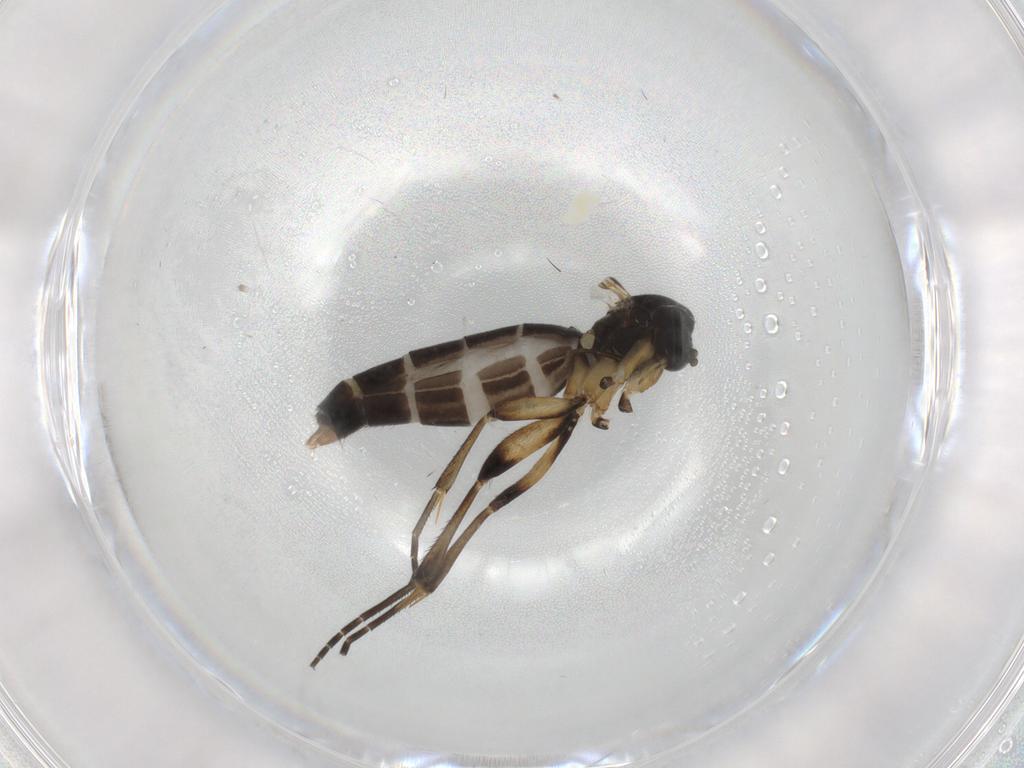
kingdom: Animalia
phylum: Arthropoda
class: Insecta
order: Diptera
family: Mycetophilidae
